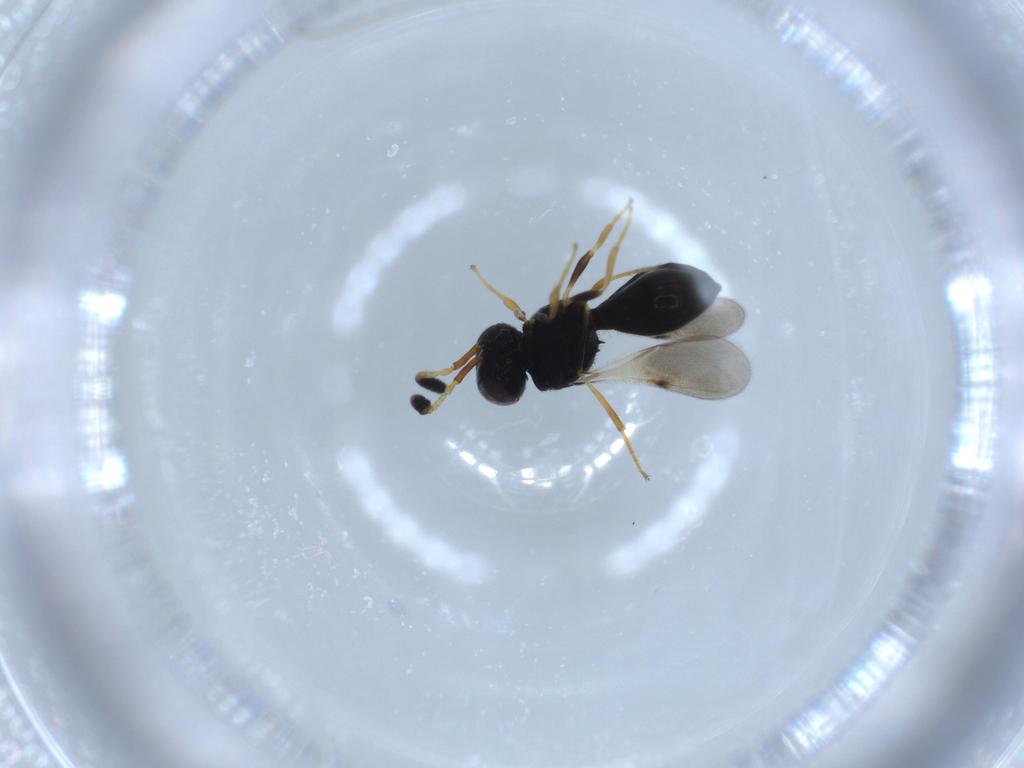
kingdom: Animalia
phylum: Arthropoda
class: Insecta
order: Hymenoptera
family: Figitidae
